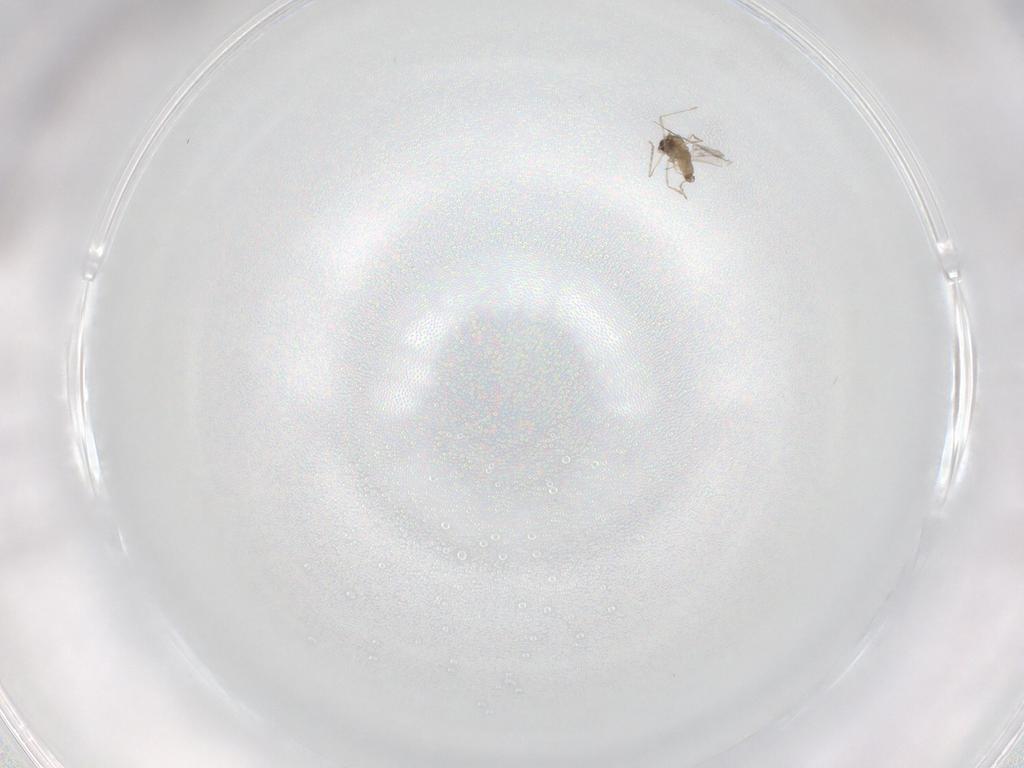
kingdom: Animalia
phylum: Arthropoda
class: Insecta
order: Diptera
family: Cecidomyiidae
